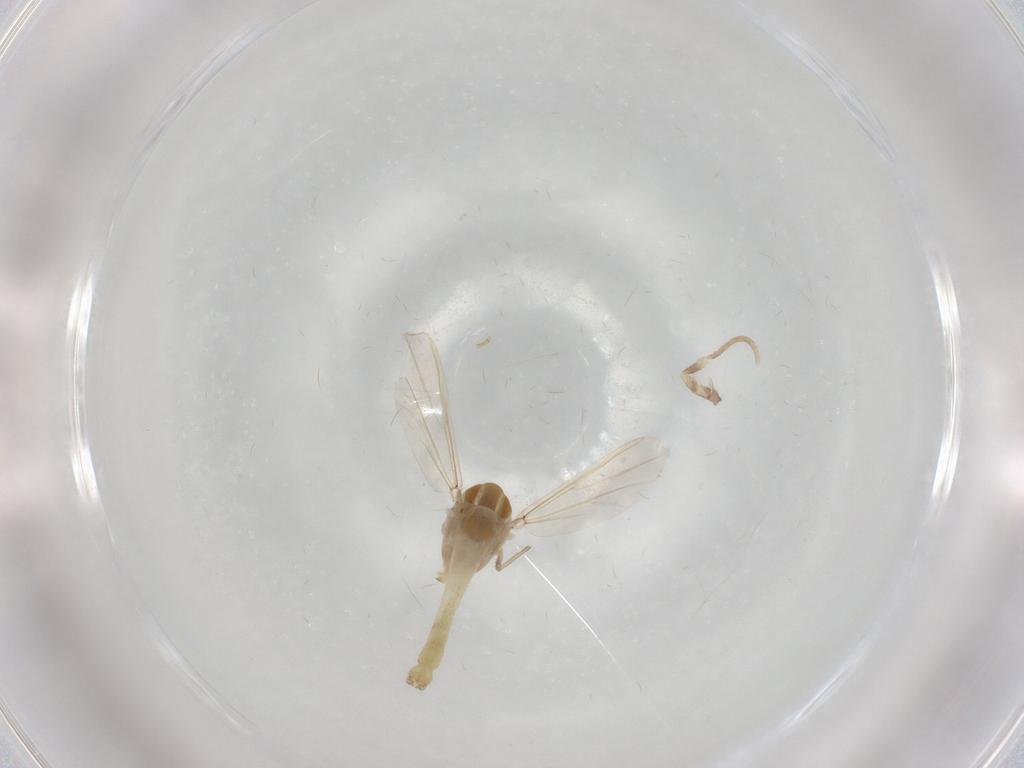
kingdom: Animalia
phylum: Arthropoda
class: Insecta
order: Diptera
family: Chironomidae
